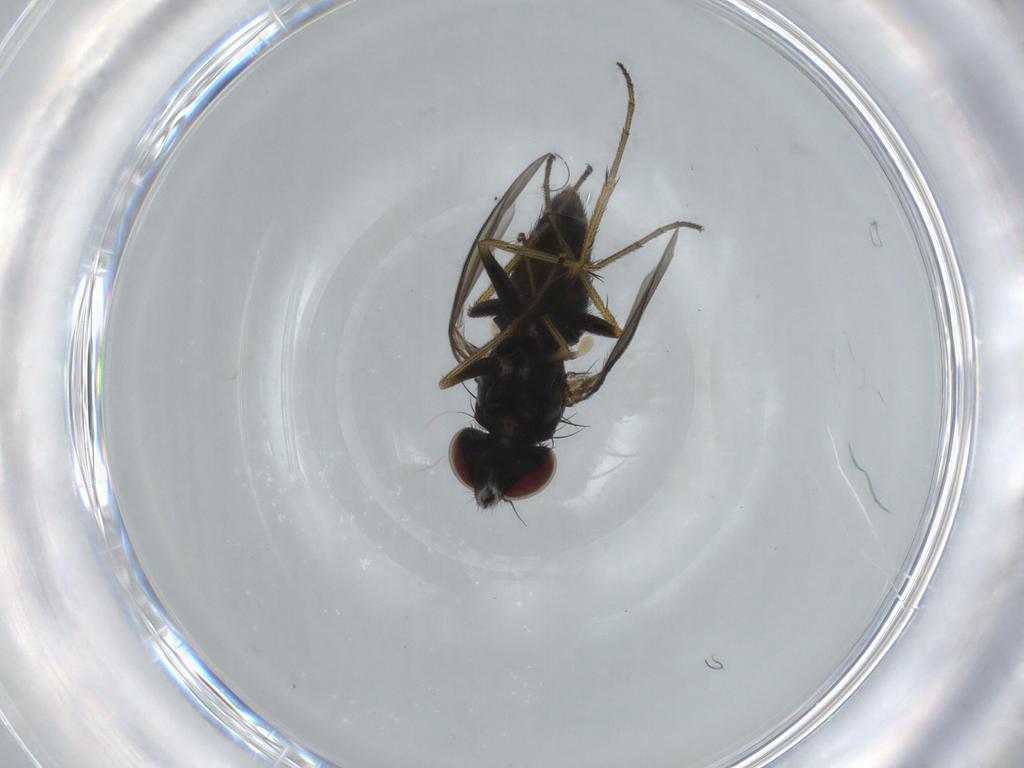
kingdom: Animalia
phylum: Arthropoda
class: Insecta
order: Diptera
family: Dolichopodidae
